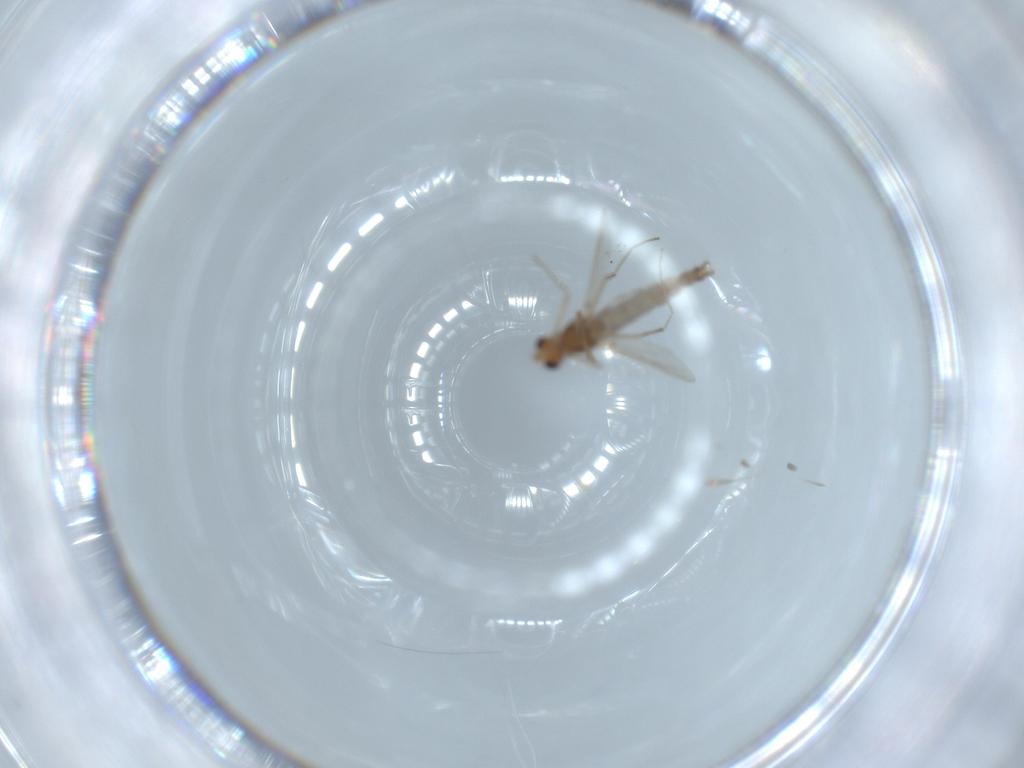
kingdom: Animalia
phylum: Arthropoda
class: Insecta
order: Diptera
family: Chironomidae
